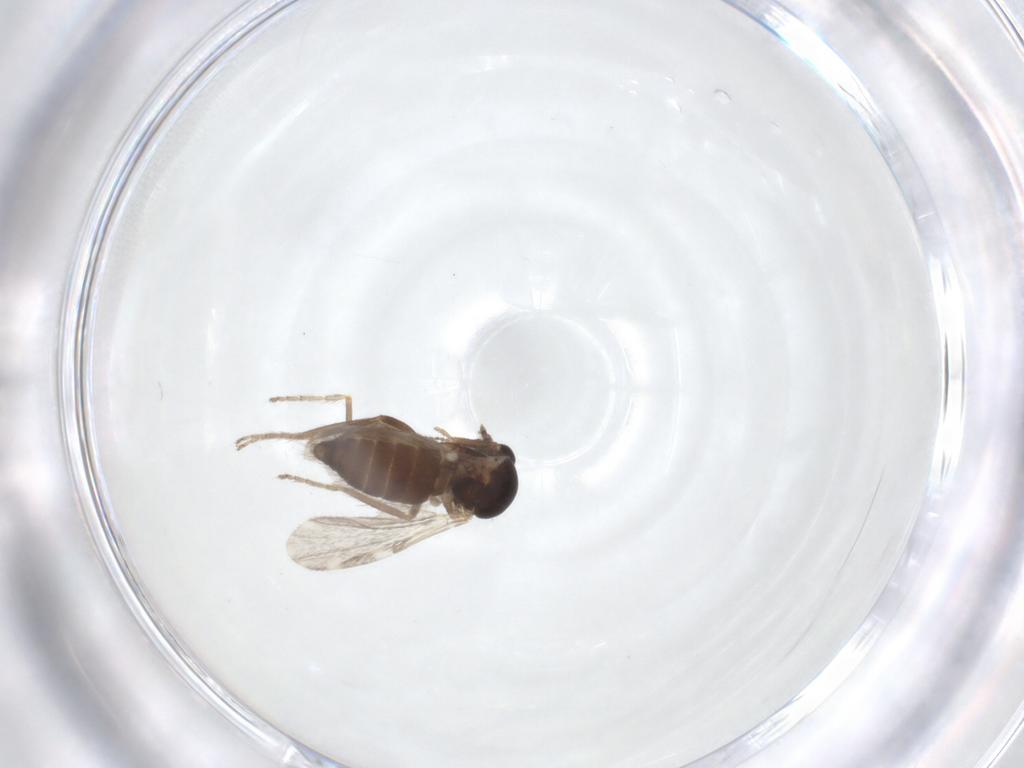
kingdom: Animalia
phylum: Arthropoda
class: Insecta
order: Diptera
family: Ceratopogonidae
